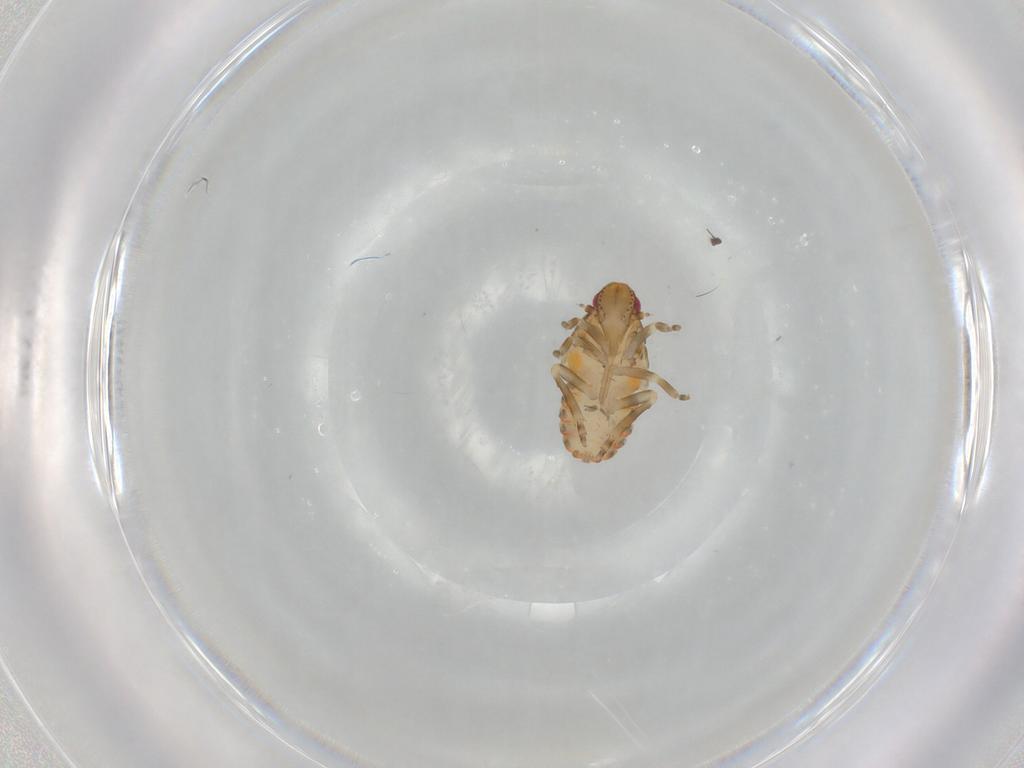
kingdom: Animalia
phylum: Arthropoda
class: Insecta
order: Hemiptera
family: Flatidae
